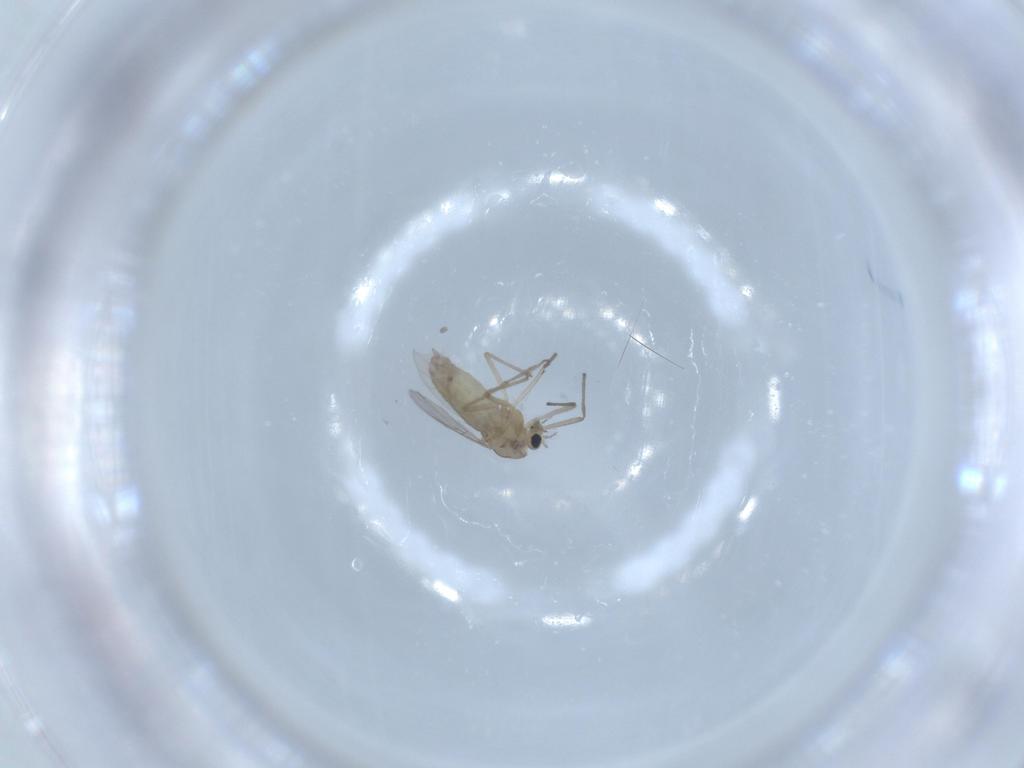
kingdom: Animalia
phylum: Arthropoda
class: Insecta
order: Diptera
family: Chironomidae
